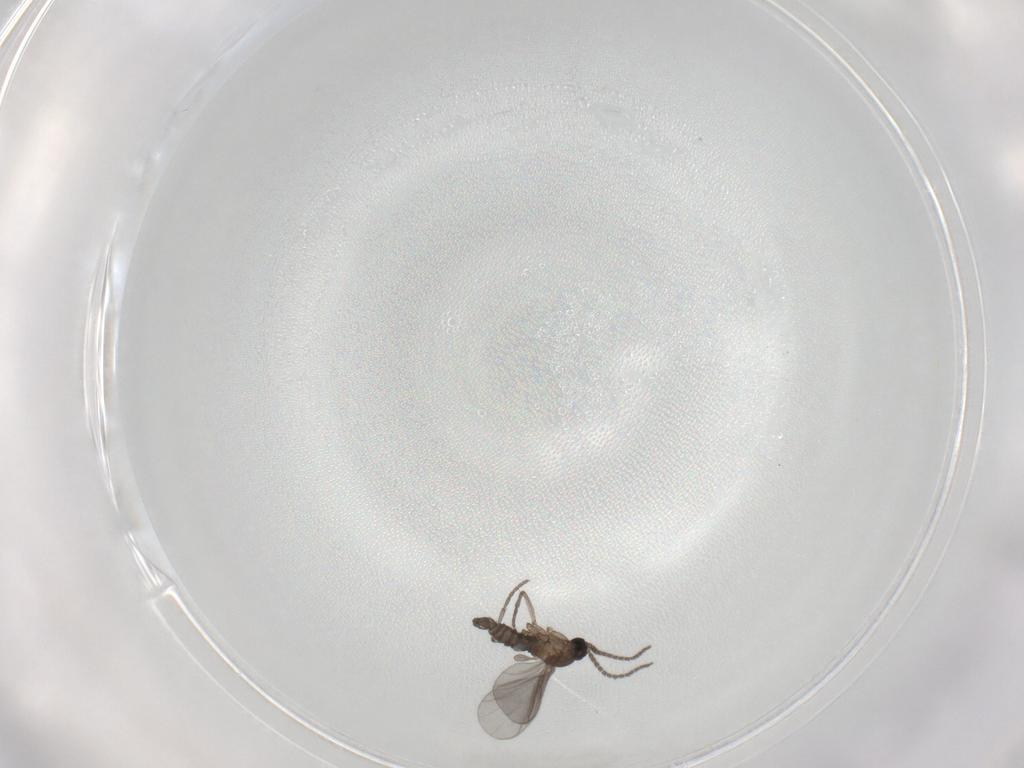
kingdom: Animalia
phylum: Arthropoda
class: Insecta
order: Diptera
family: Sciaridae
